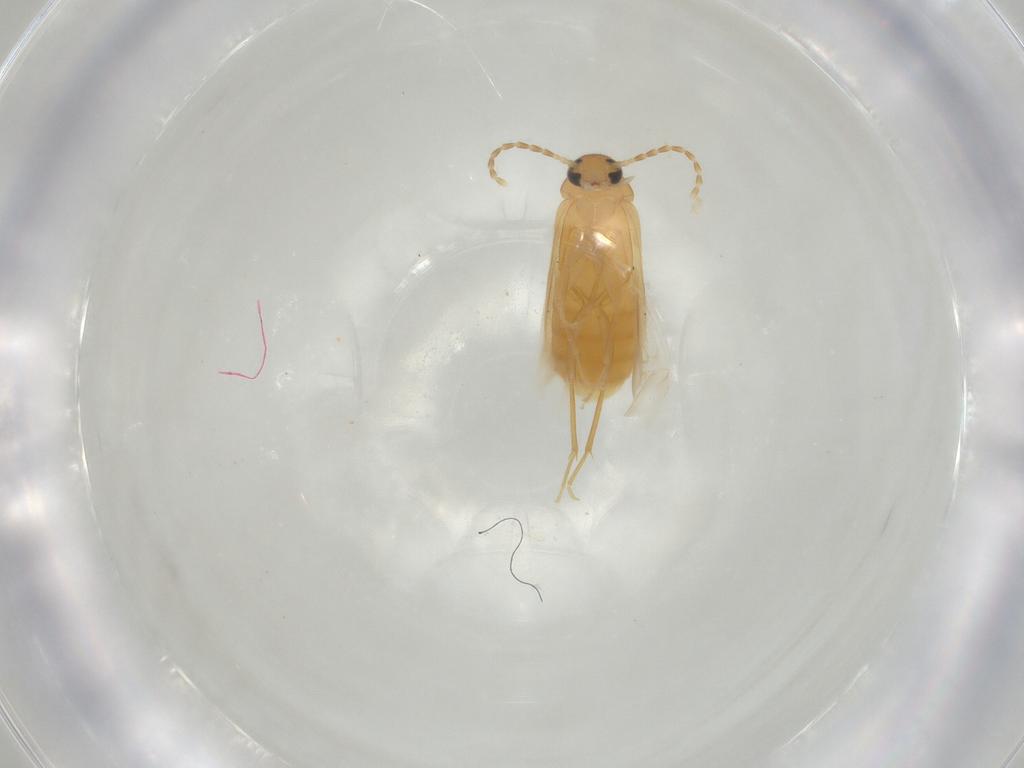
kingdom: Animalia
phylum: Arthropoda
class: Insecta
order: Coleoptera
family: Scraptiidae
